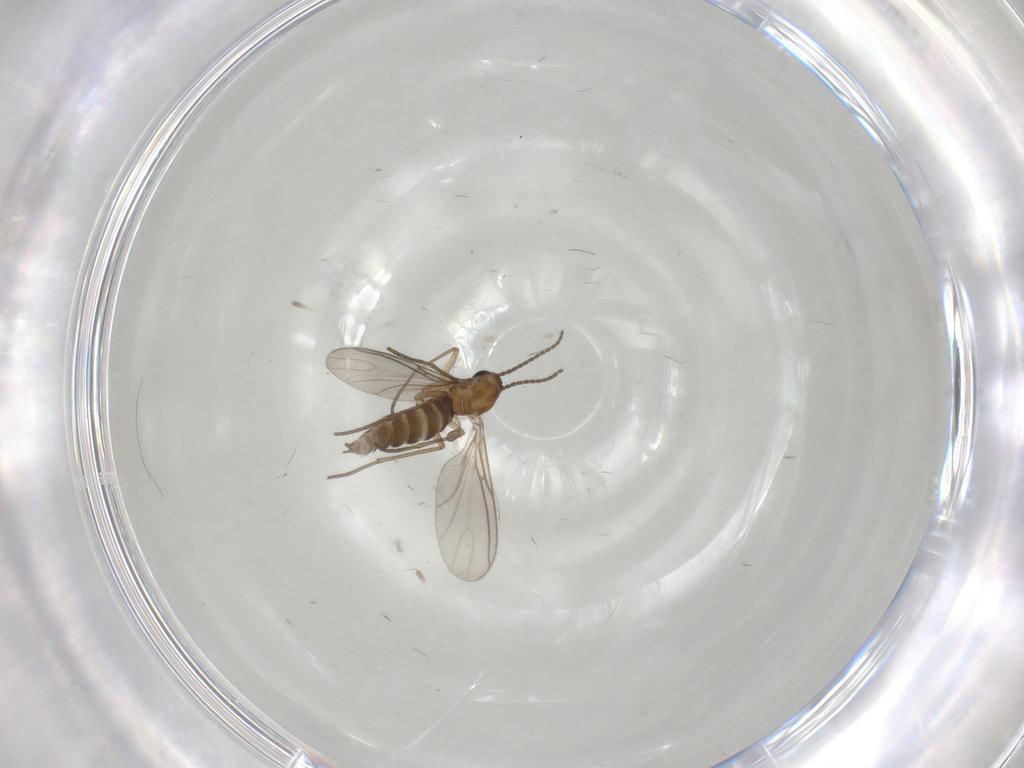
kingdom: Animalia
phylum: Arthropoda
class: Insecta
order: Diptera
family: Sciaridae
